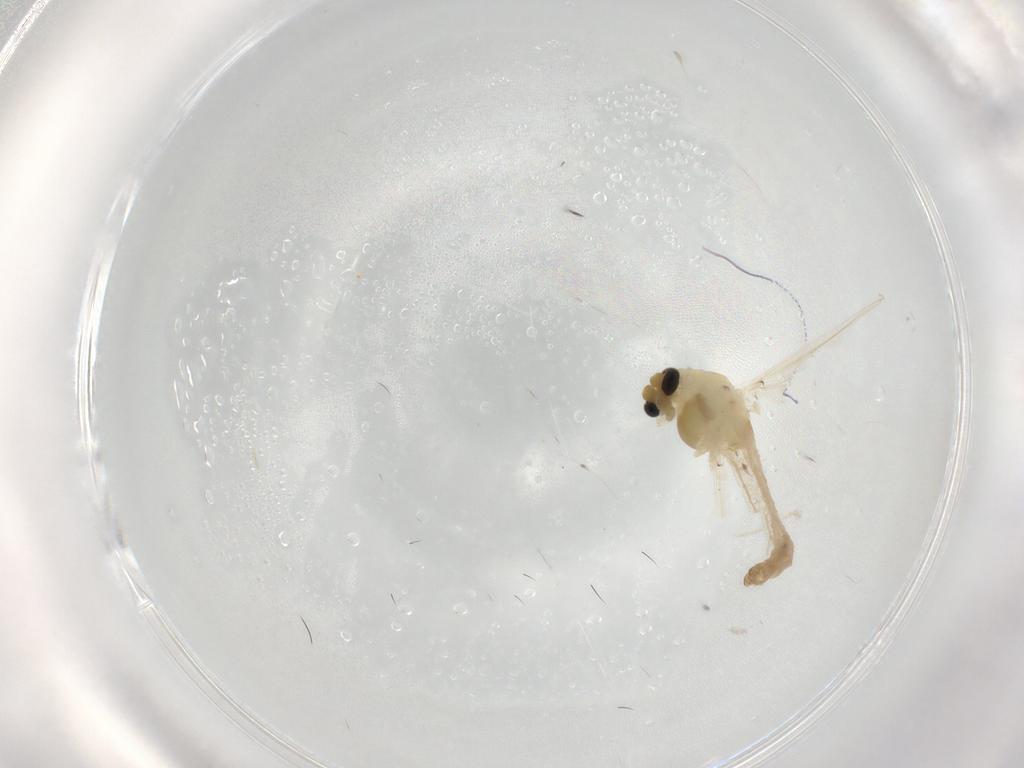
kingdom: Animalia
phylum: Arthropoda
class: Insecta
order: Diptera
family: Chironomidae
